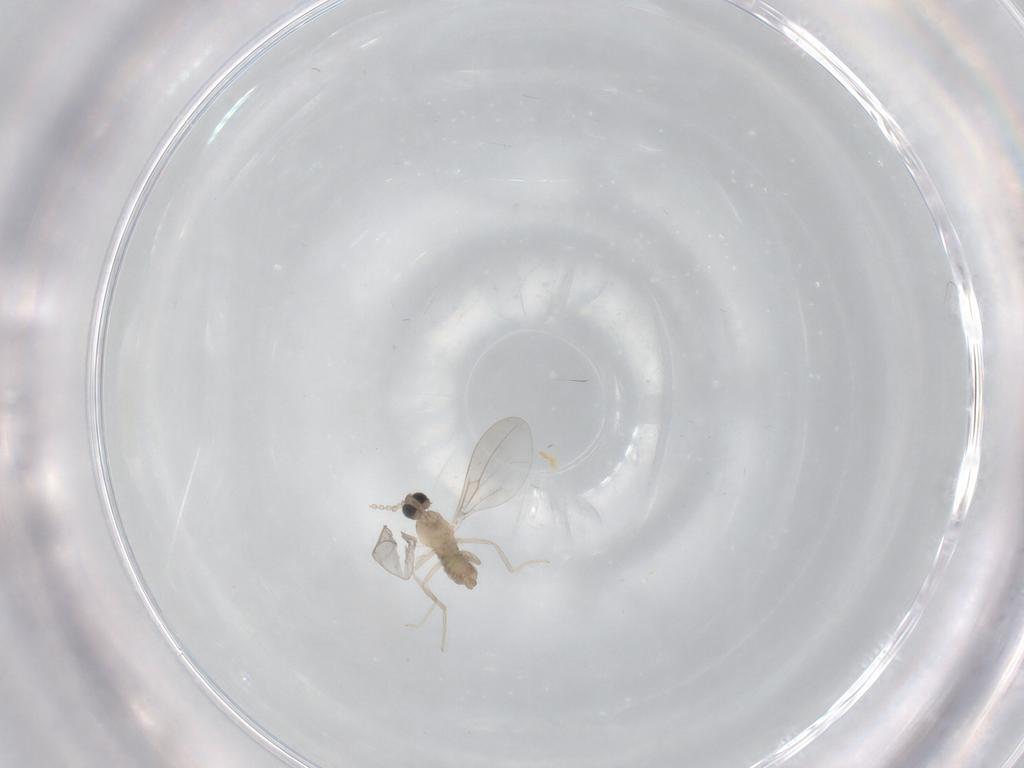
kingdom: Animalia
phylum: Arthropoda
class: Insecta
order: Diptera
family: Cecidomyiidae
